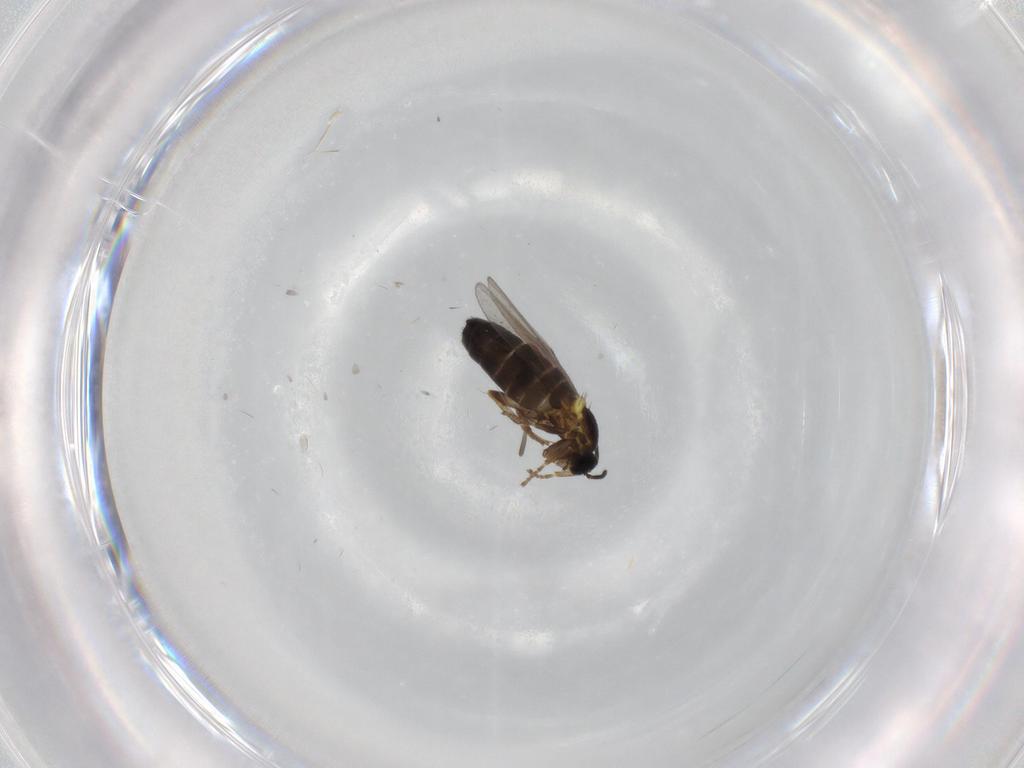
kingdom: Animalia
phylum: Arthropoda
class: Insecta
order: Diptera
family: Scatopsidae
